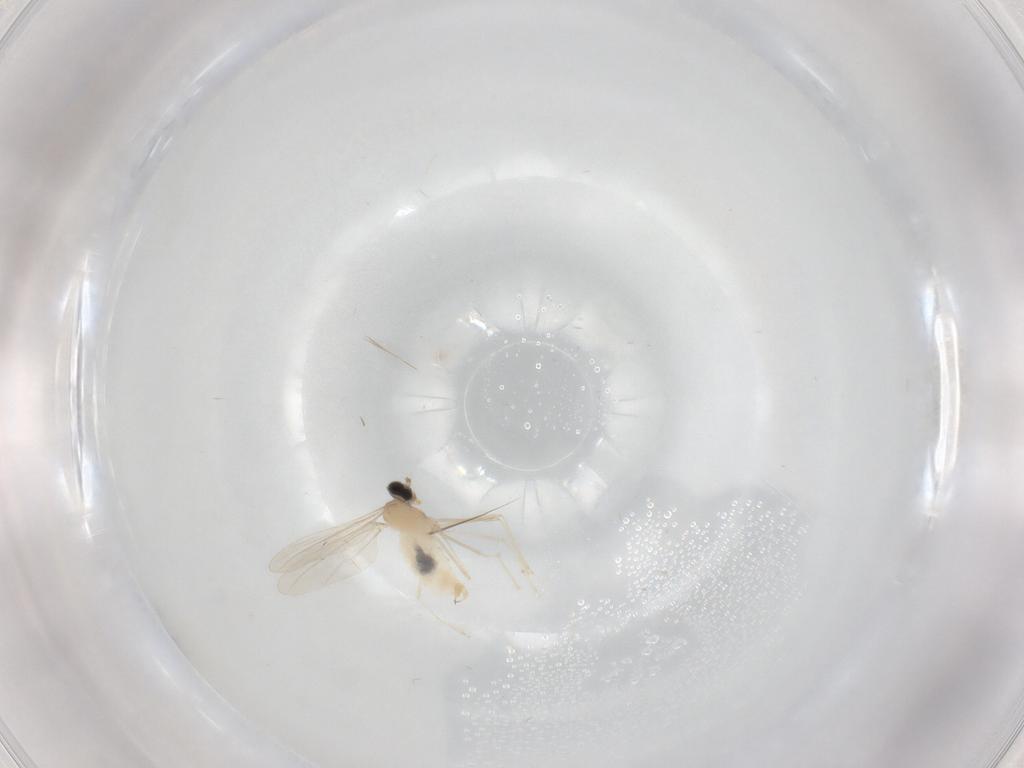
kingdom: Animalia
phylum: Arthropoda
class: Insecta
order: Diptera
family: Cecidomyiidae
